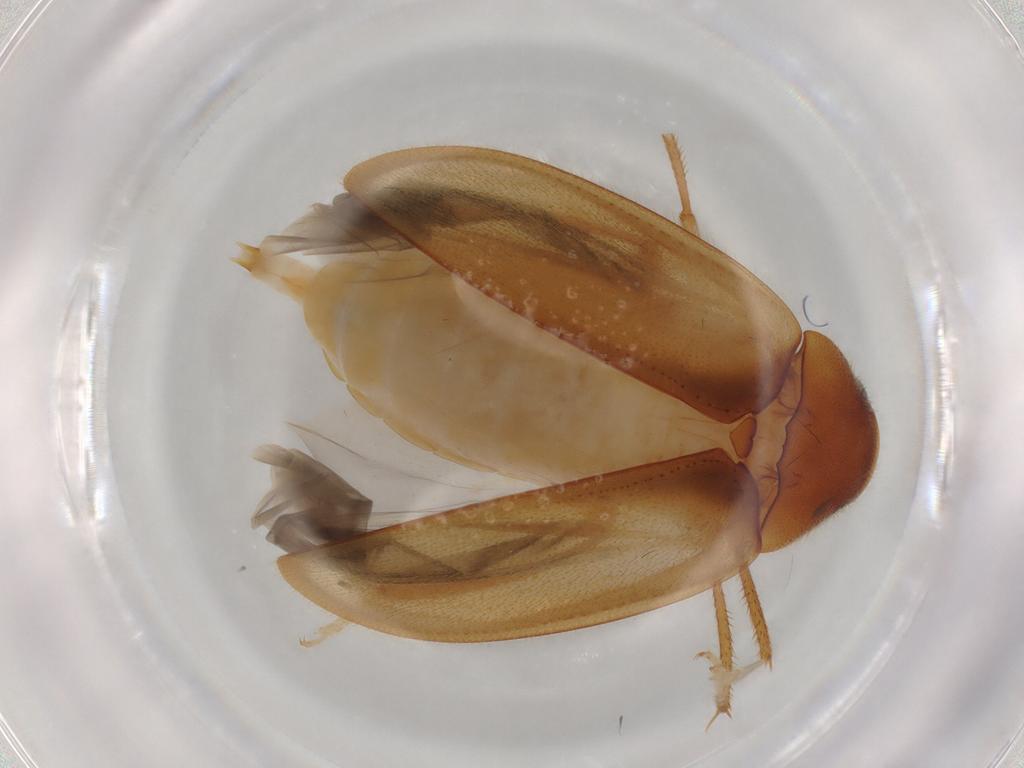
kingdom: Animalia
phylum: Arthropoda
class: Insecta
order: Coleoptera
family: Ptilodactylidae
